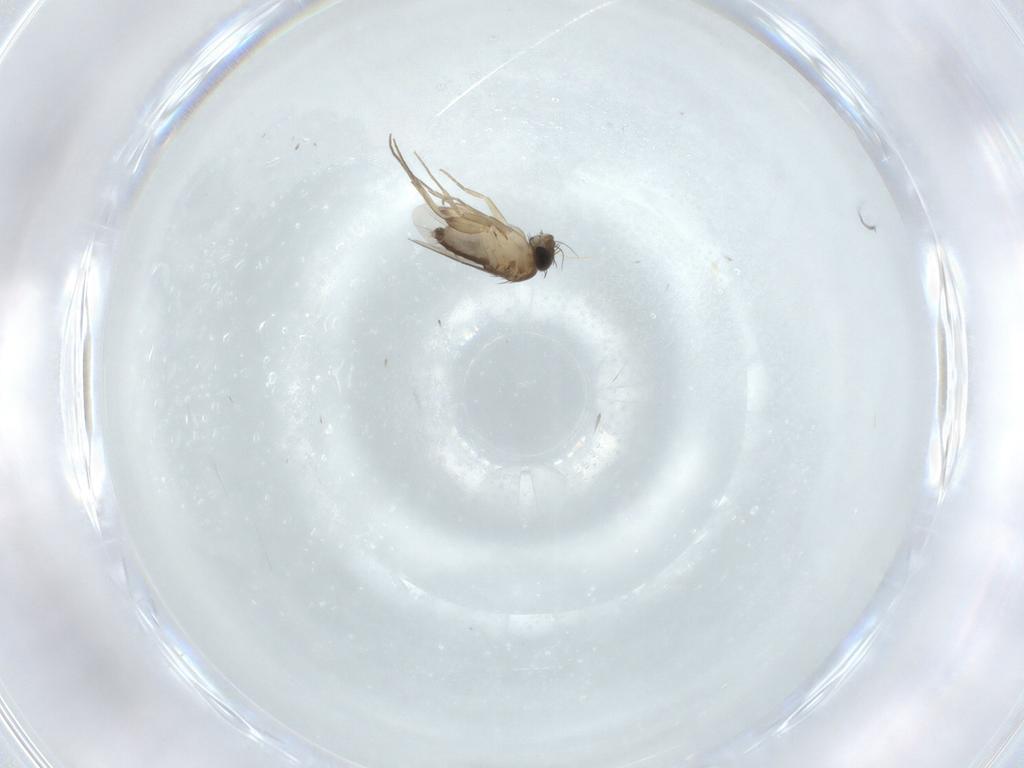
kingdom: Animalia
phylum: Arthropoda
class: Insecta
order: Diptera
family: Phoridae
